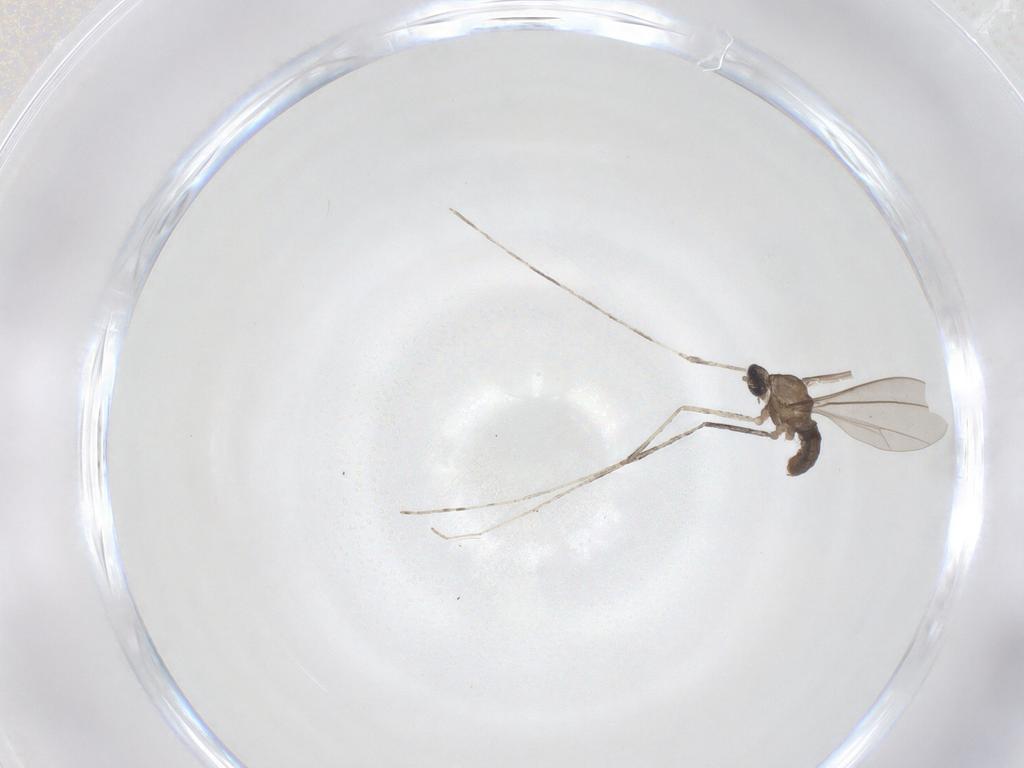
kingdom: Animalia
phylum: Arthropoda
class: Insecta
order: Diptera
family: Cecidomyiidae
